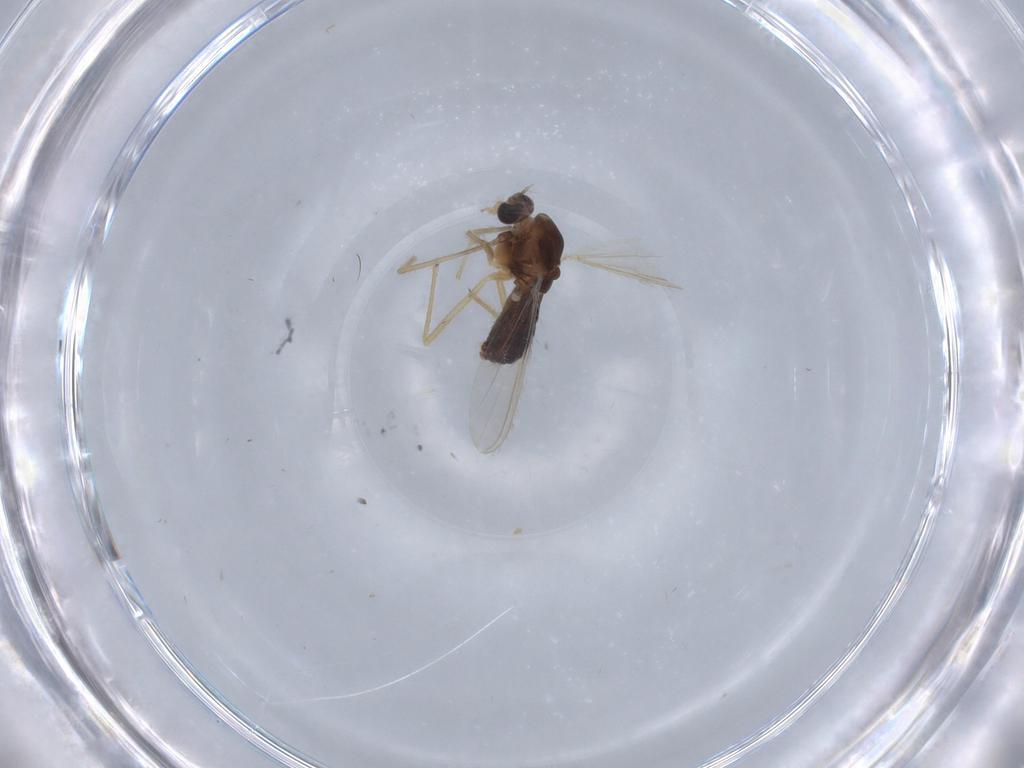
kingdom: Animalia
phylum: Arthropoda
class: Insecta
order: Diptera
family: Chironomidae
